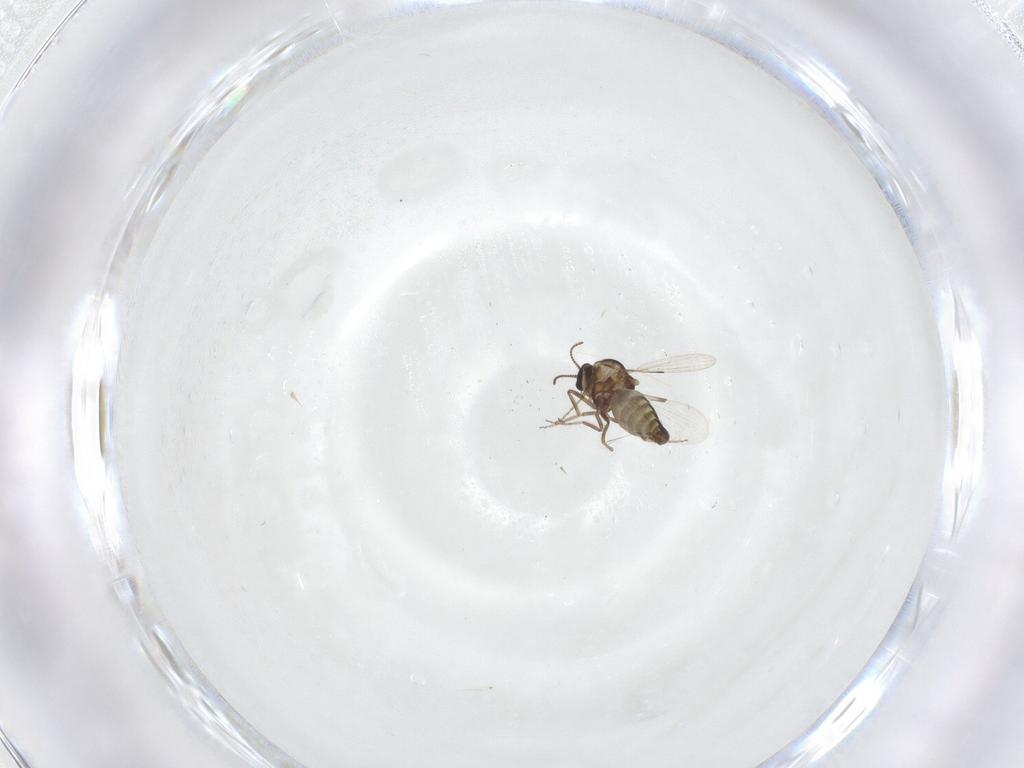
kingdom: Animalia
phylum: Arthropoda
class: Insecta
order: Diptera
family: Ceratopogonidae
